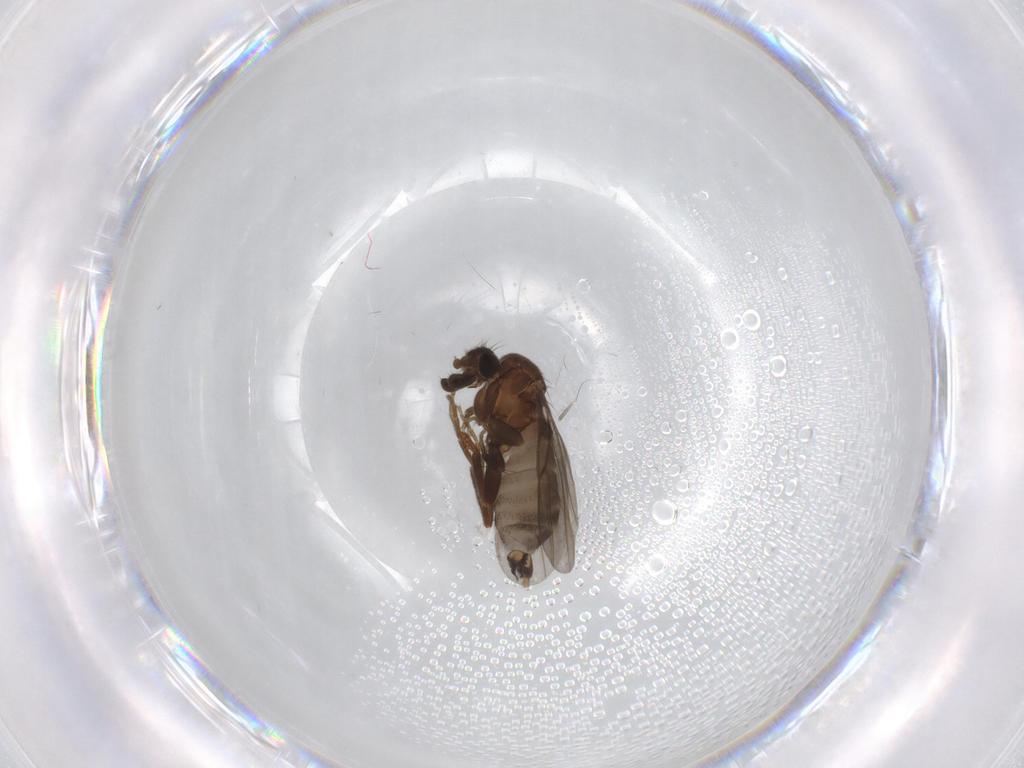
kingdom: Animalia
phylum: Arthropoda
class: Insecta
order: Diptera
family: Phoridae
